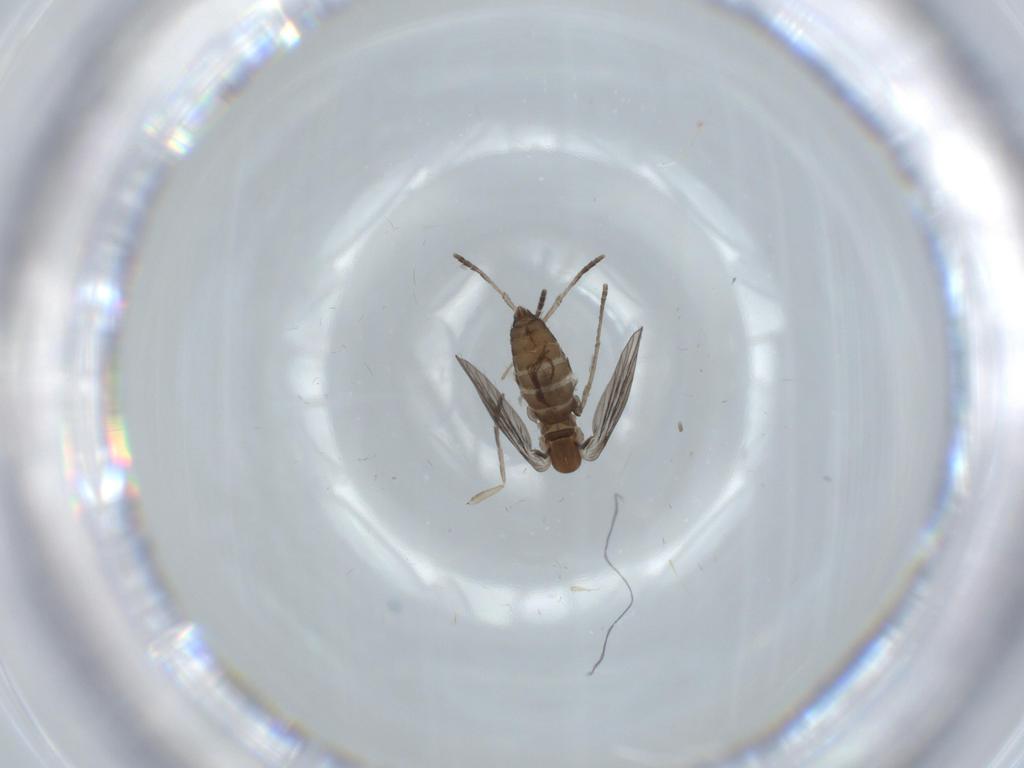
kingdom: Animalia
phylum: Arthropoda
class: Insecta
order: Diptera
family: Psychodidae
